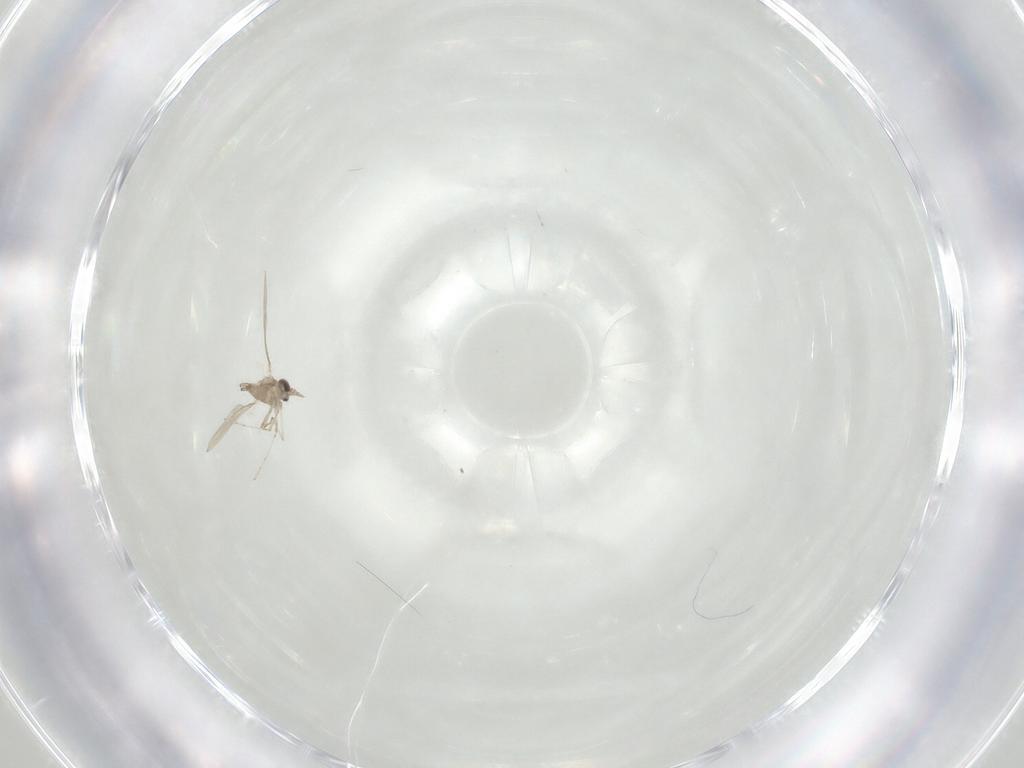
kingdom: Animalia
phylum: Arthropoda
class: Insecta
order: Diptera
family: Cecidomyiidae
